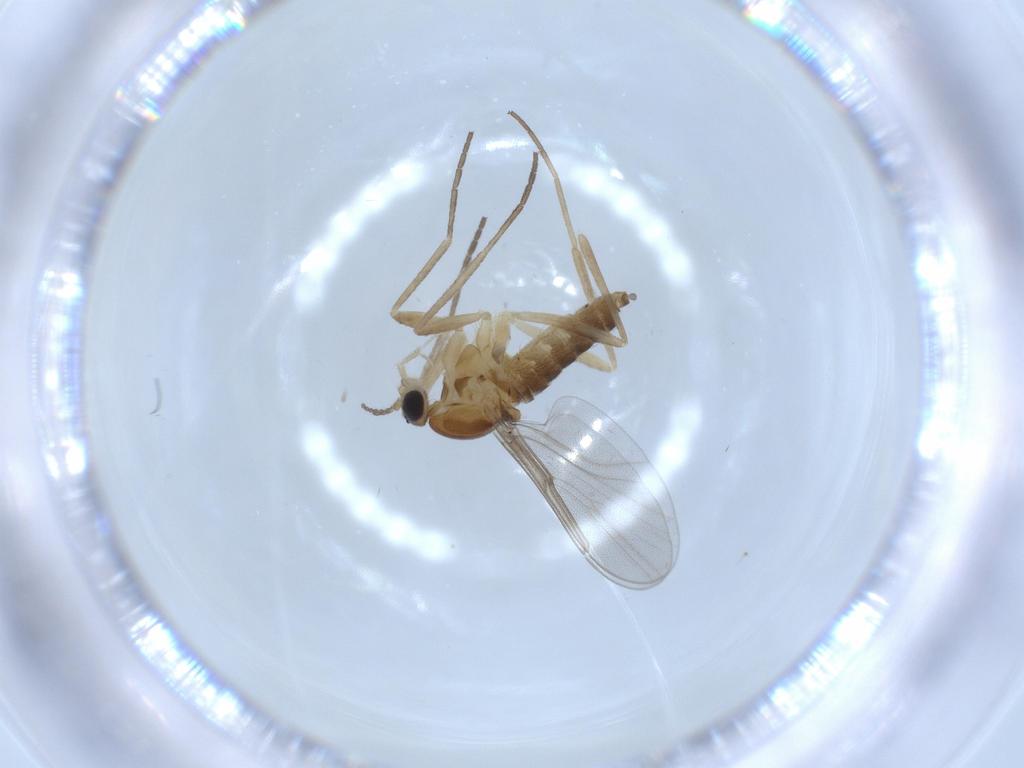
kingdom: Animalia
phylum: Arthropoda
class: Insecta
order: Diptera
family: Cecidomyiidae
